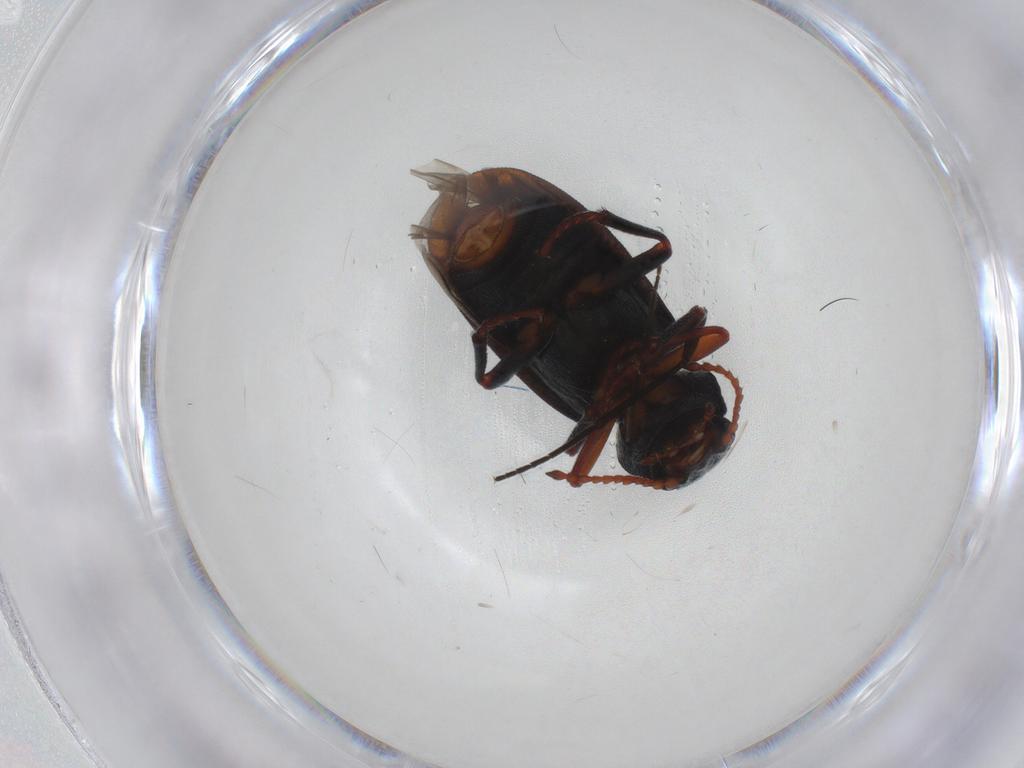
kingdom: Animalia
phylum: Arthropoda
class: Insecta
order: Coleoptera
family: Melyridae
